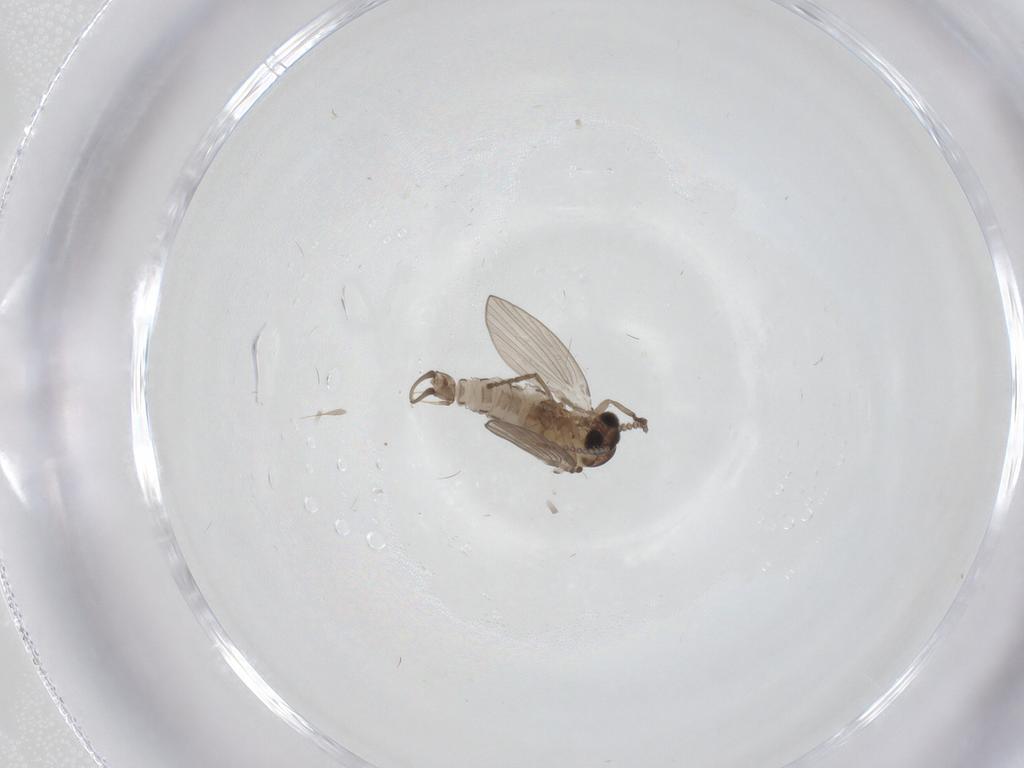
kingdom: Animalia
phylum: Arthropoda
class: Insecta
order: Diptera
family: Psychodidae
